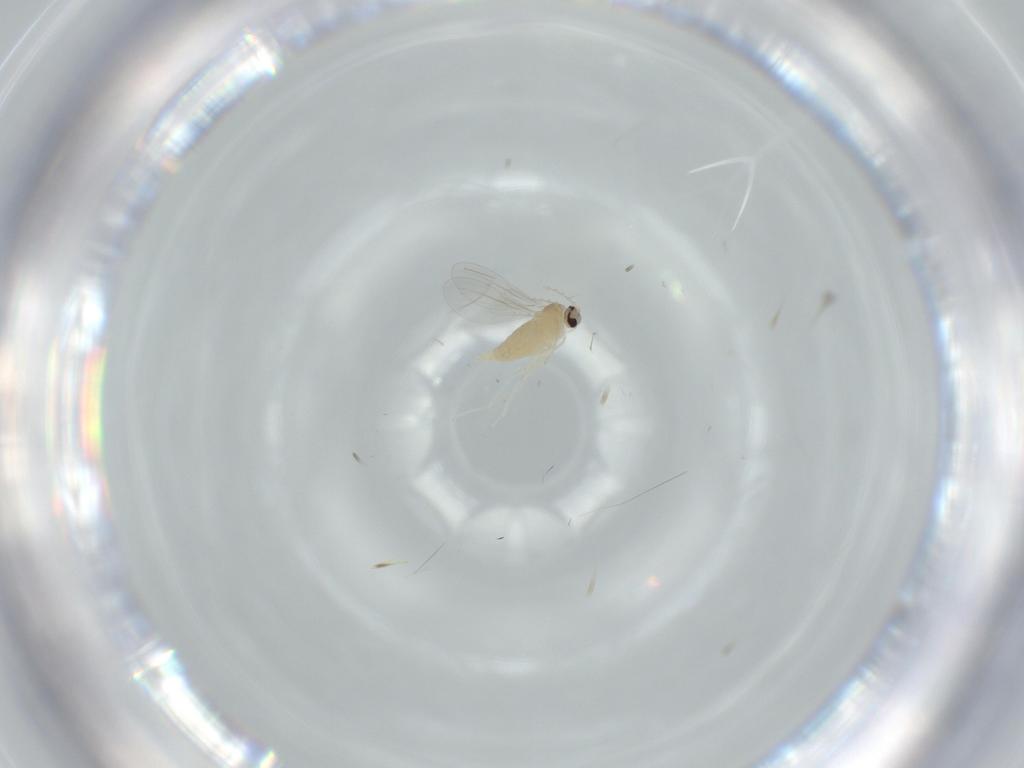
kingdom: Animalia
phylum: Arthropoda
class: Insecta
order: Diptera
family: Cecidomyiidae
